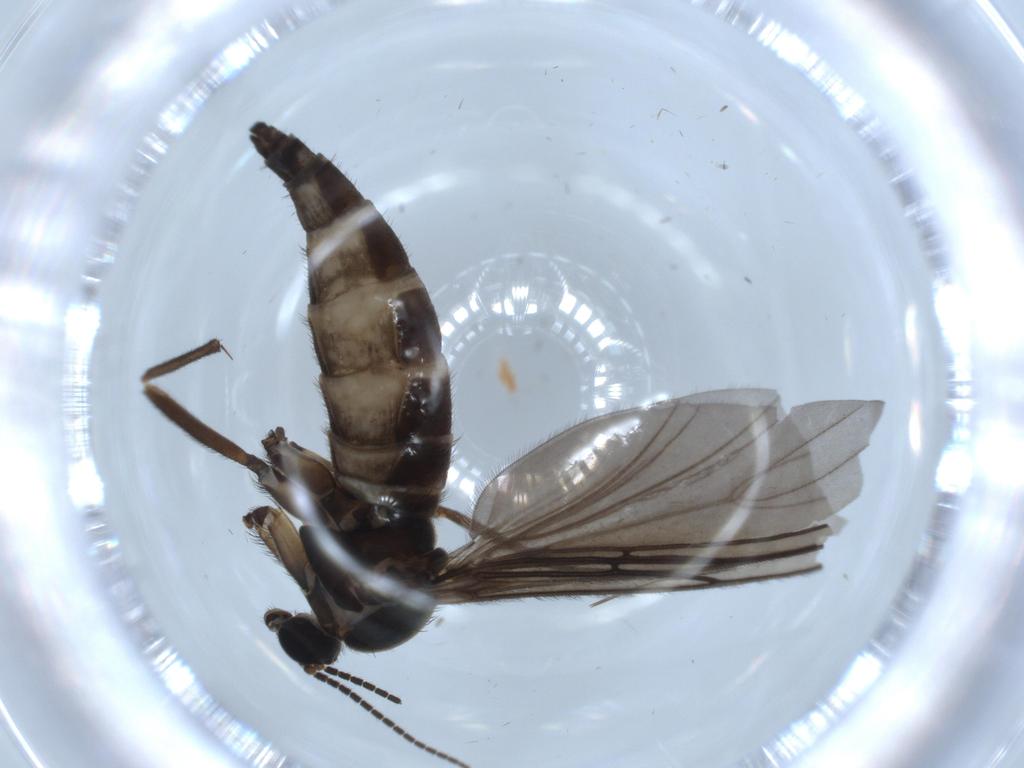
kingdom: Animalia
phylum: Arthropoda
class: Insecta
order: Diptera
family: Sciaridae
